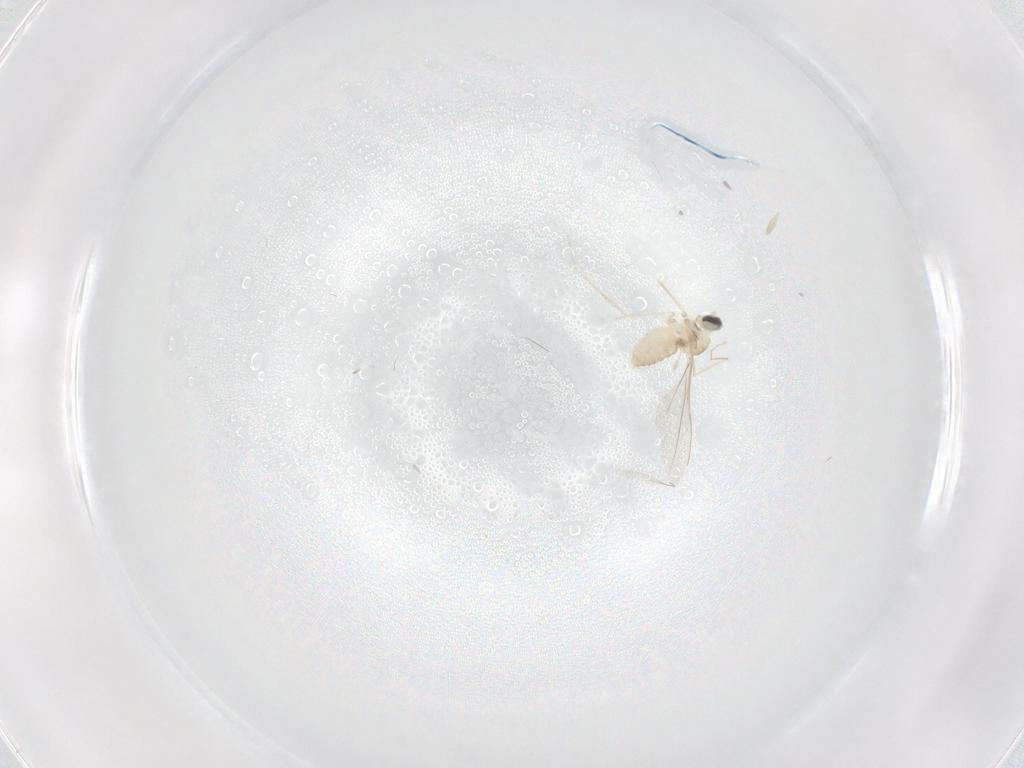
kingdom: Animalia
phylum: Arthropoda
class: Insecta
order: Diptera
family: Cecidomyiidae
